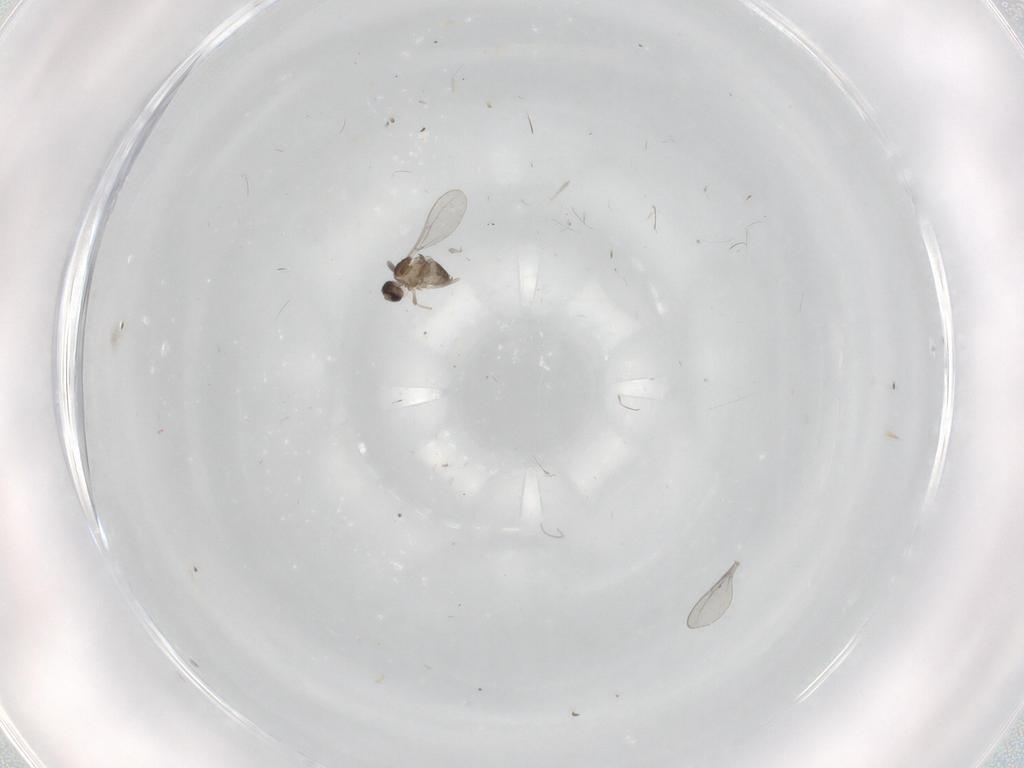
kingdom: Animalia
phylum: Arthropoda
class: Insecta
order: Diptera
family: Cecidomyiidae
